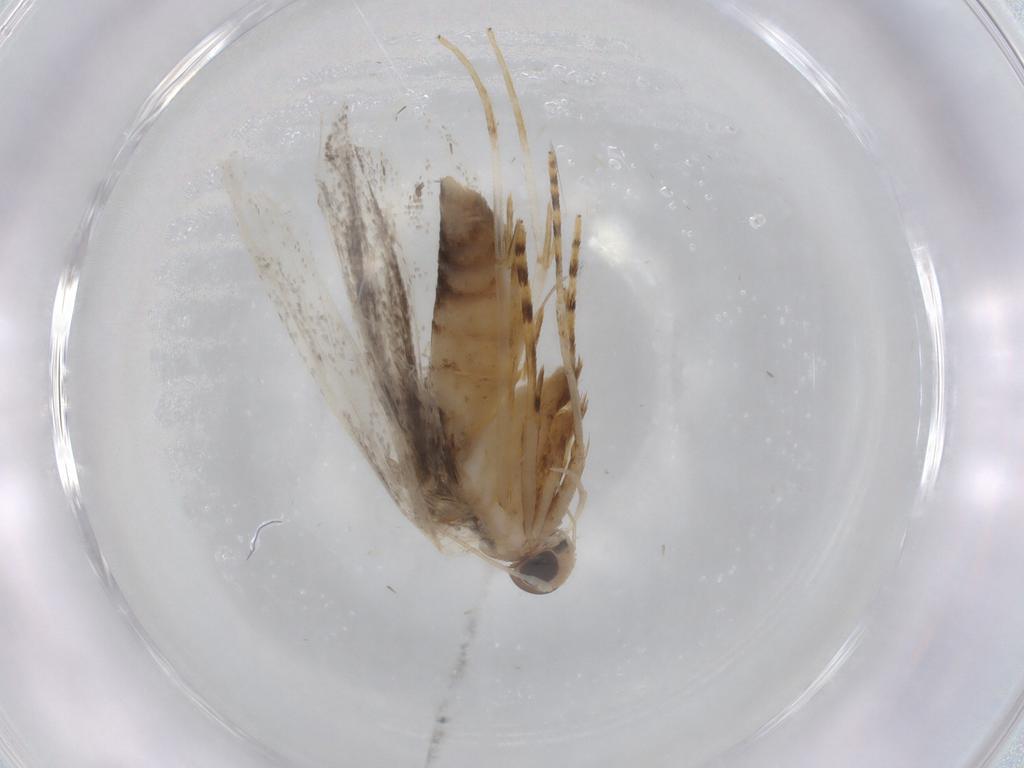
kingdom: Animalia
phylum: Arthropoda
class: Insecta
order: Lepidoptera
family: Autostichidae
